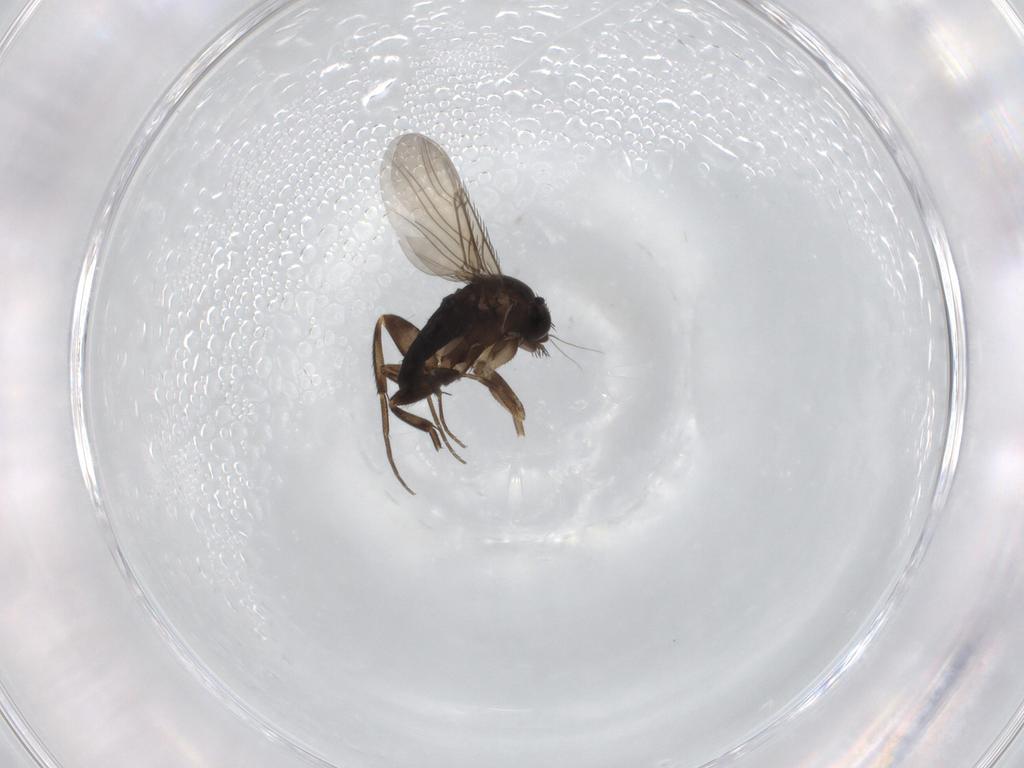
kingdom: Animalia
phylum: Arthropoda
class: Insecta
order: Diptera
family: Phoridae
